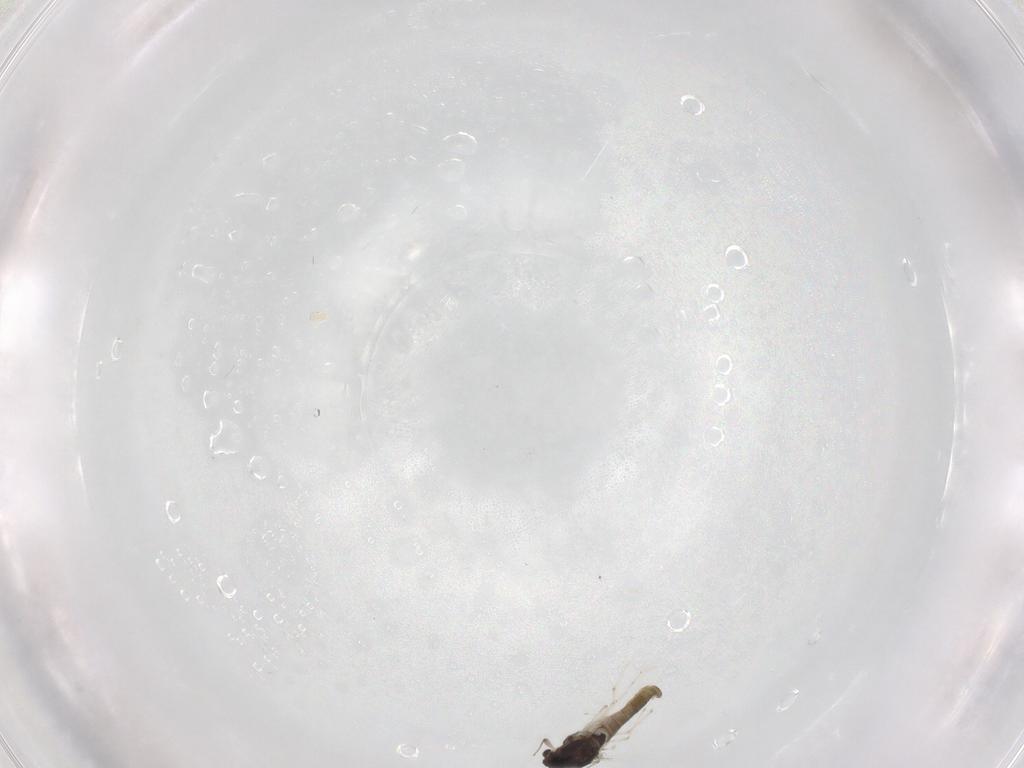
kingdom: Animalia
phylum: Arthropoda
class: Insecta
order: Diptera
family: Chironomidae
